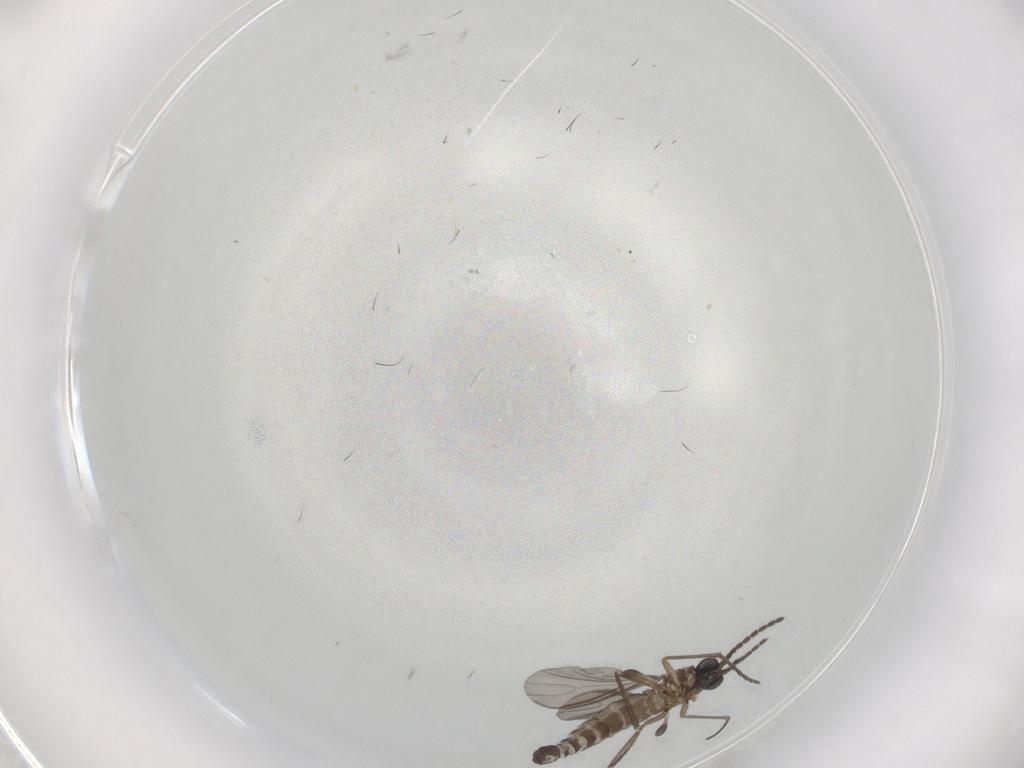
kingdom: Animalia
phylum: Arthropoda
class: Insecta
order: Diptera
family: Sciaridae
